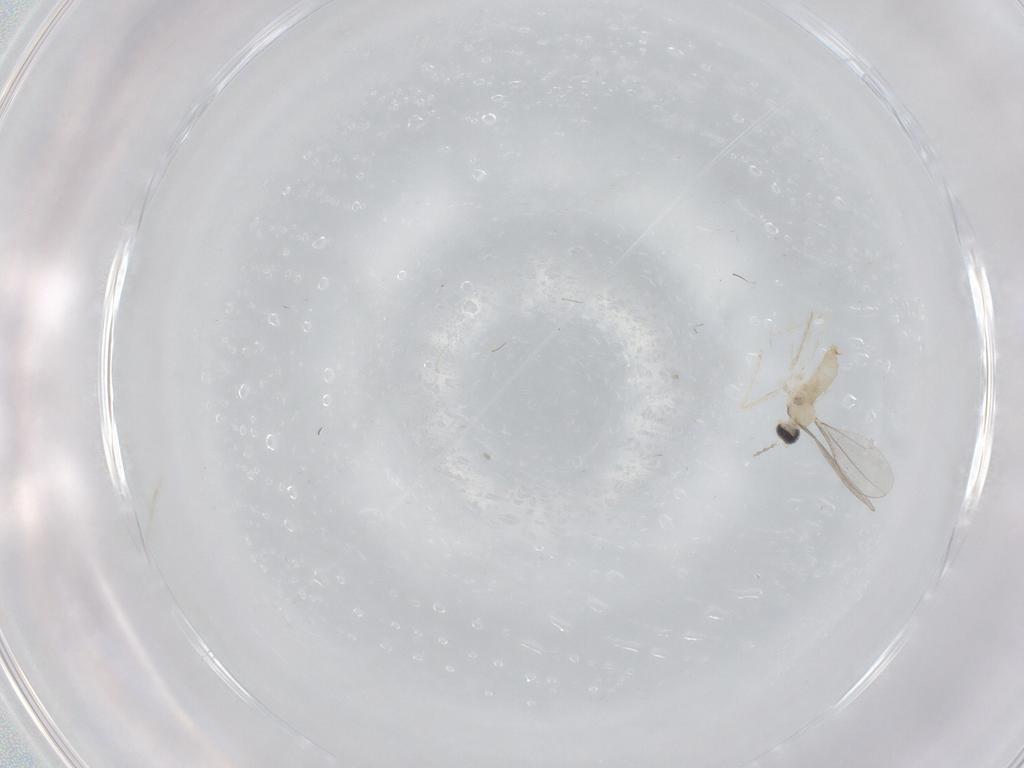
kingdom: Animalia
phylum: Arthropoda
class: Insecta
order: Diptera
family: Cecidomyiidae
